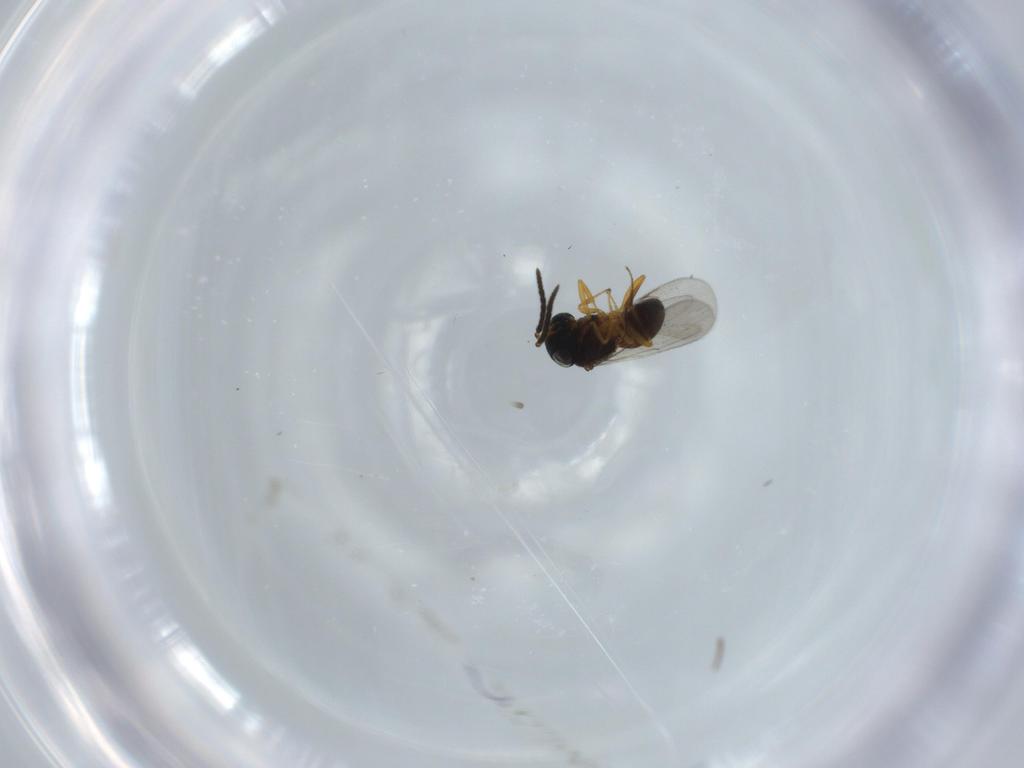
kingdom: Animalia
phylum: Arthropoda
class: Insecta
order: Coleoptera
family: Curculionidae
